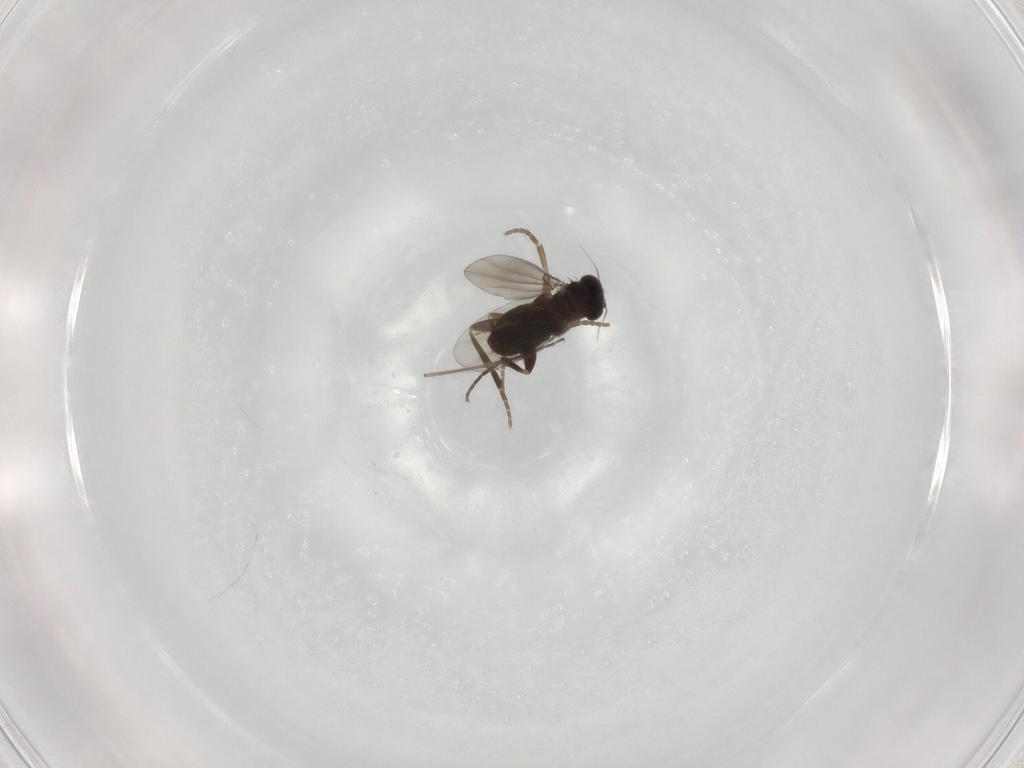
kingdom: Animalia
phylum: Arthropoda
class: Insecta
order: Diptera
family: Phoridae
